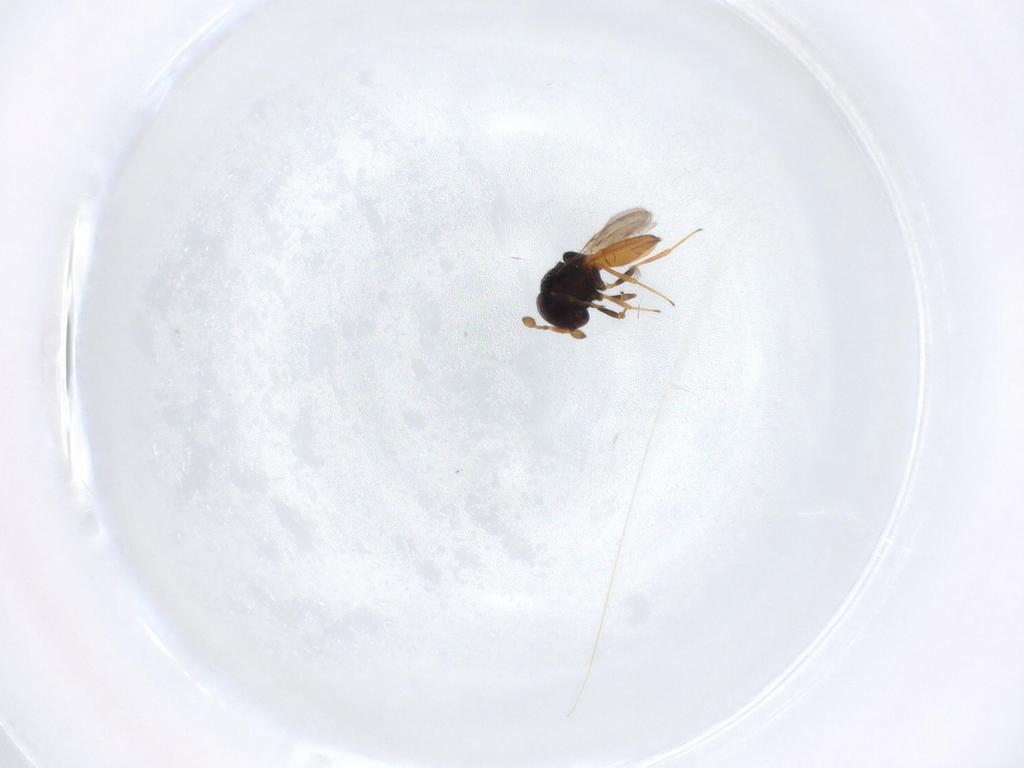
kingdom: Animalia
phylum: Arthropoda
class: Insecta
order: Hymenoptera
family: Scelionidae
